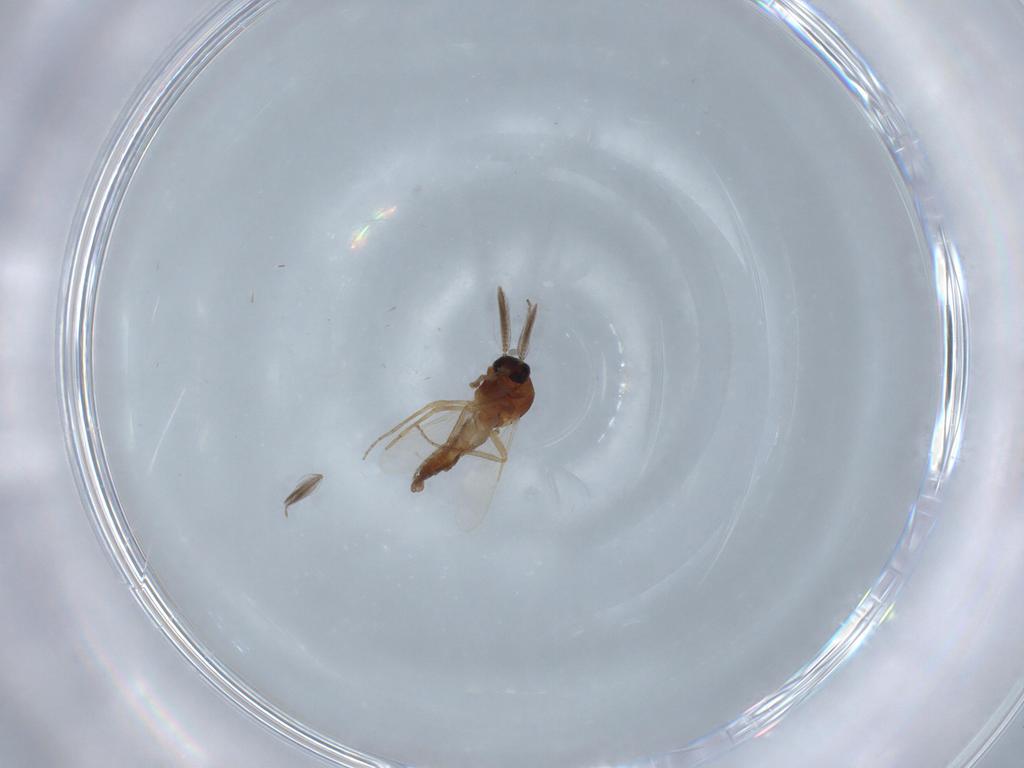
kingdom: Animalia
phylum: Arthropoda
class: Insecta
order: Diptera
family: Ceratopogonidae
